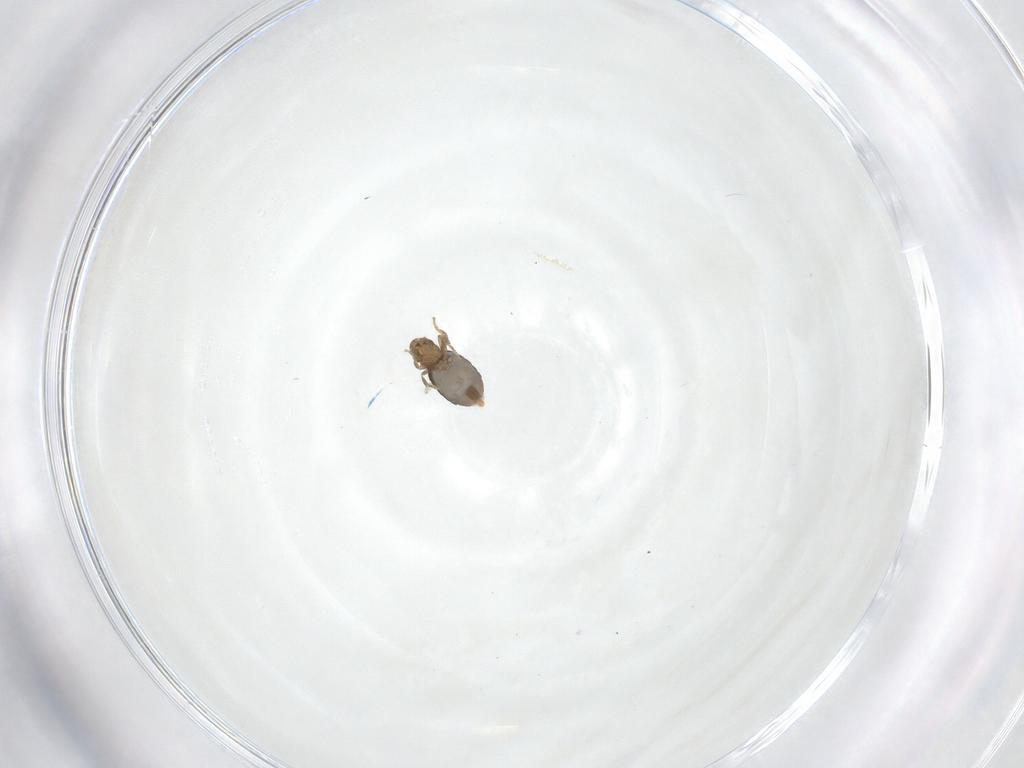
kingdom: Animalia
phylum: Arthropoda
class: Insecta
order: Diptera
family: Phoridae
